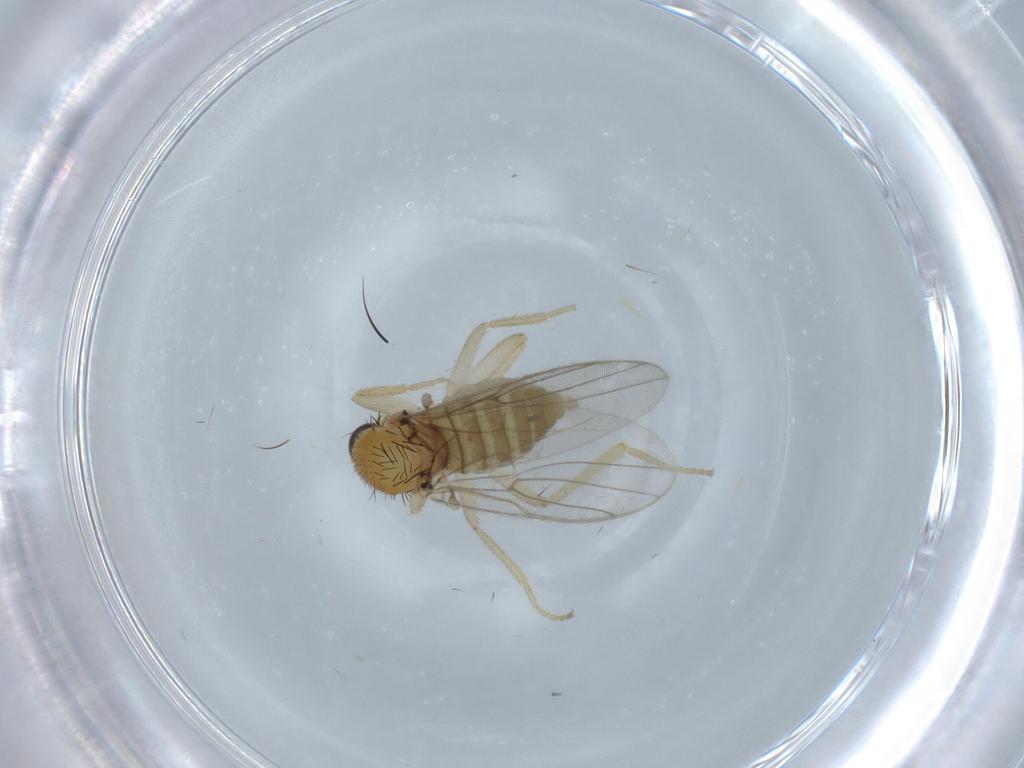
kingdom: Animalia
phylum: Arthropoda
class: Insecta
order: Diptera
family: Hybotidae
